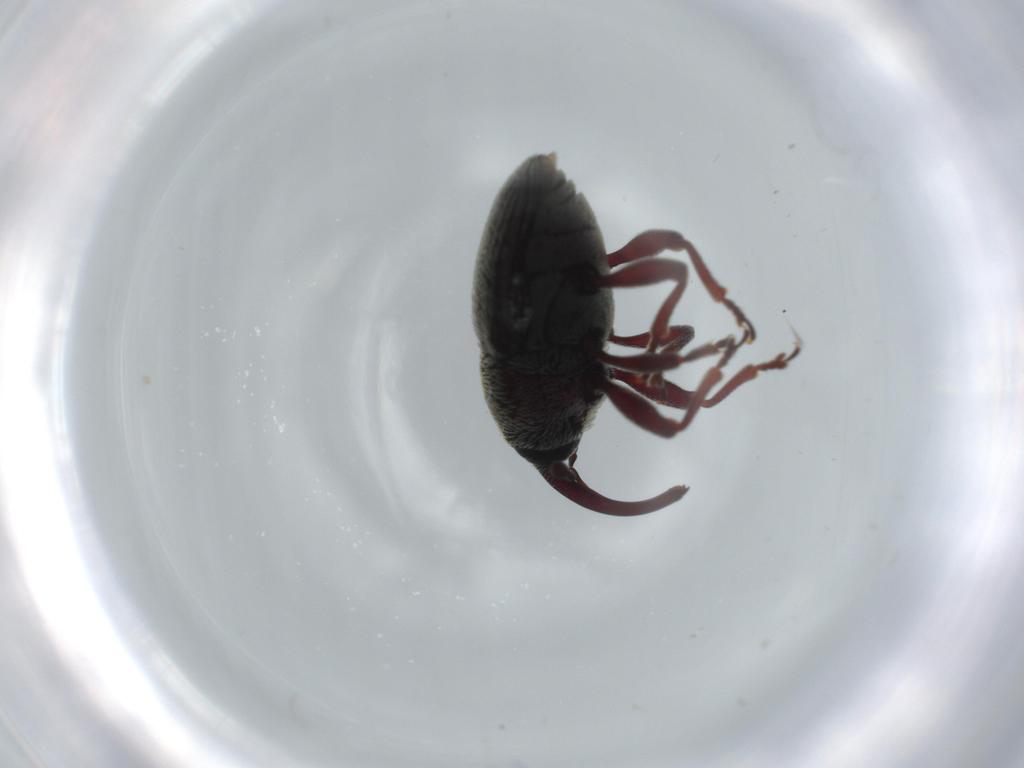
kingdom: Animalia
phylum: Arthropoda
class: Insecta
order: Coleoptera
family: Curculionidae
